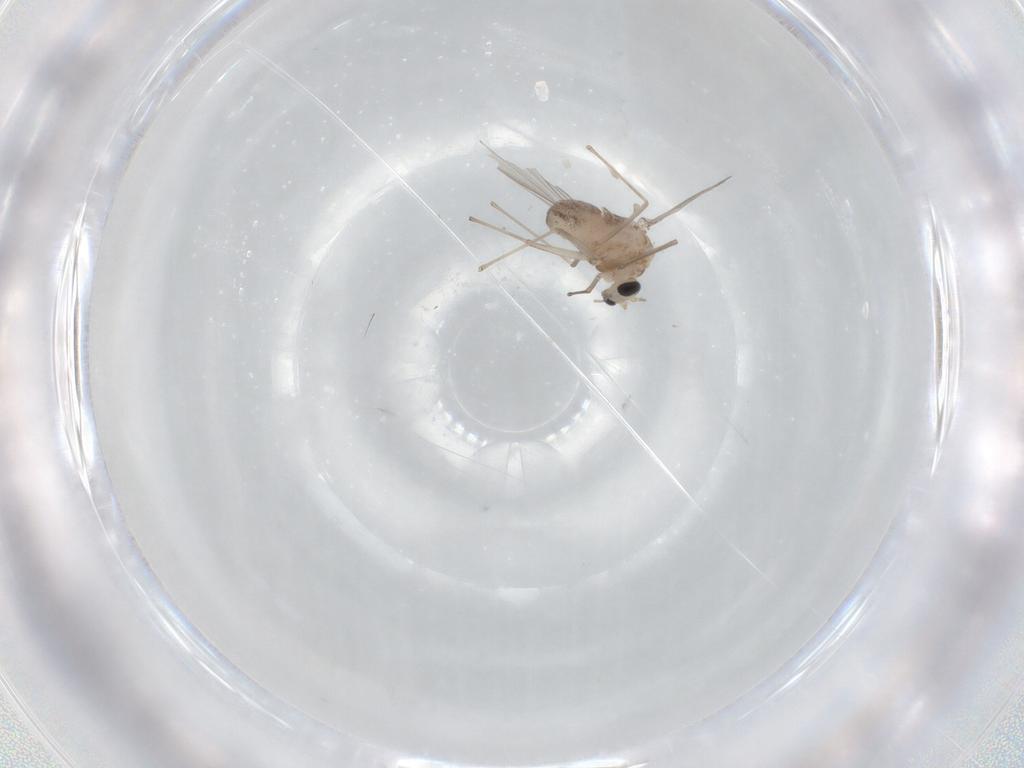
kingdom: Animalia
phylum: Arthropoda
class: Insecta
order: Diptera
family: Chironomidae
